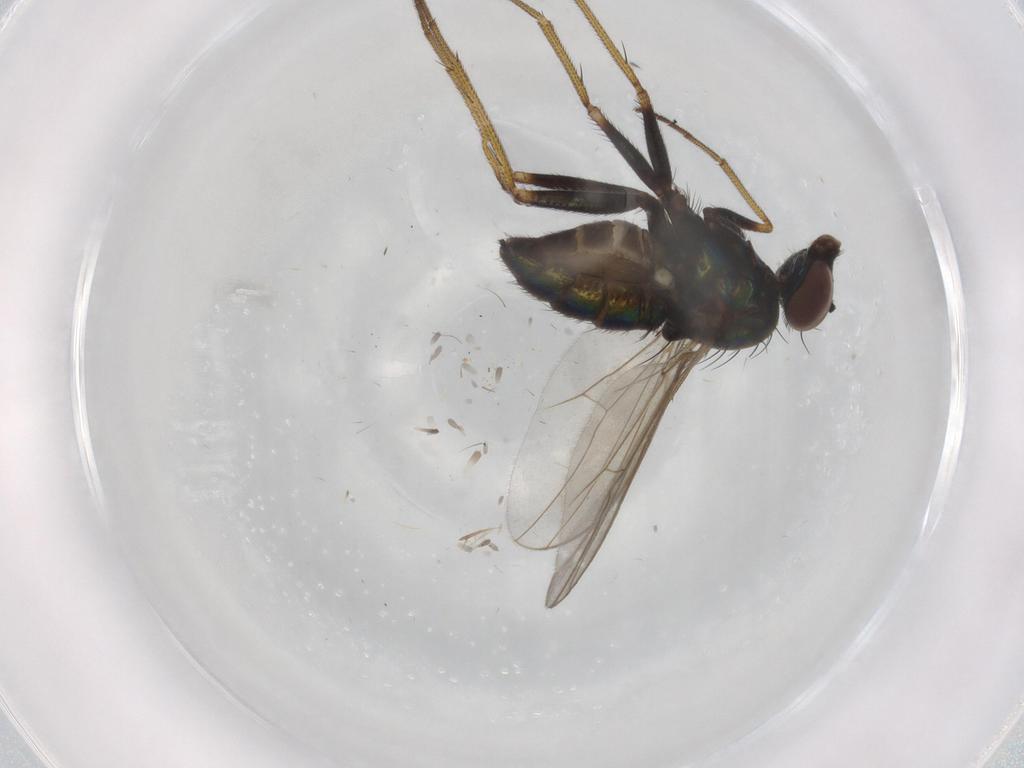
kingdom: Animalia
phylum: Arthropoda
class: Insecta
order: Diptera
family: Dolichopodidae
